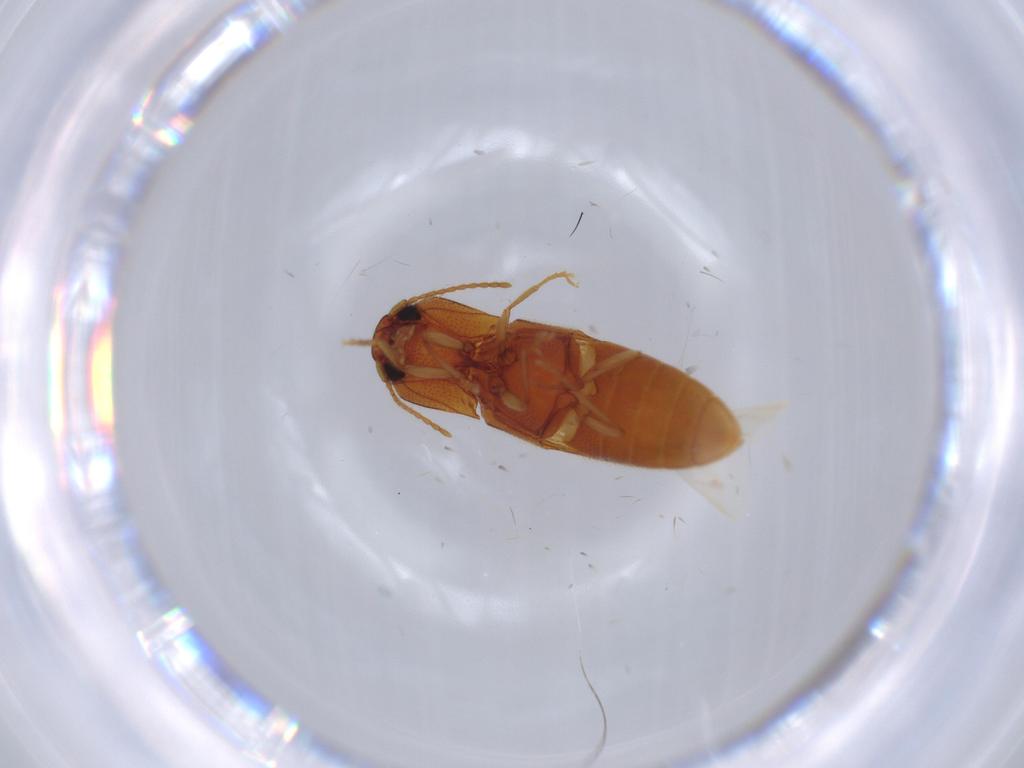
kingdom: Animalia
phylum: Arthropoda
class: Insecta
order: Coleoptera
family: Elateridae
